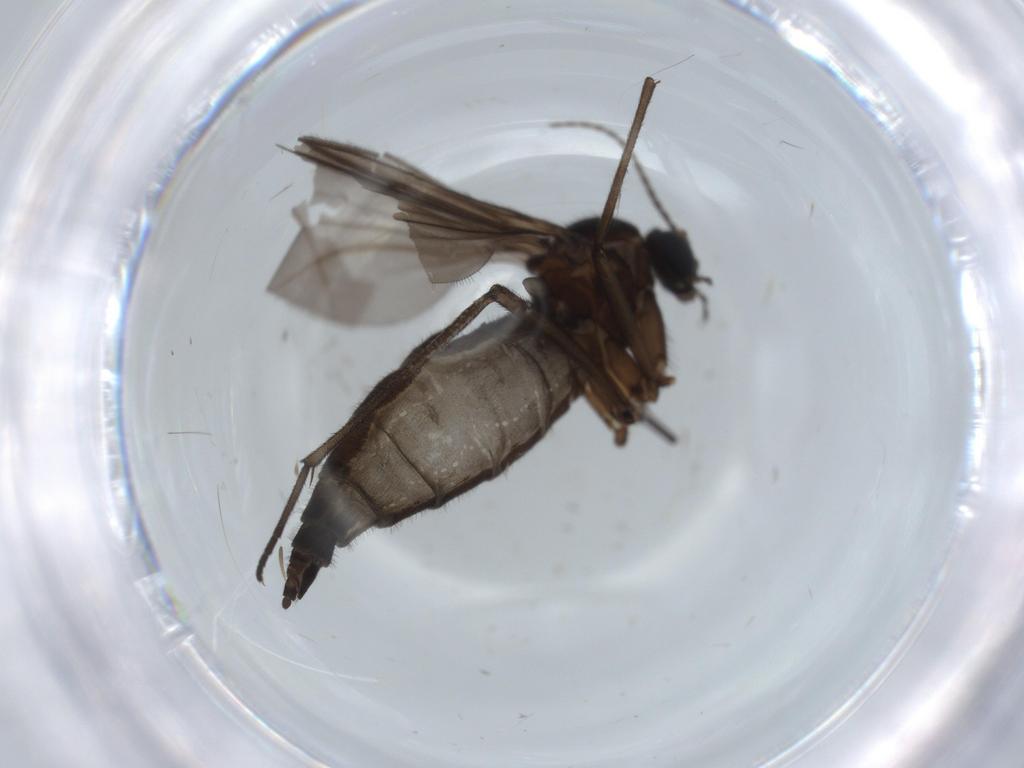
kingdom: Animalia
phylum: Arthropoda
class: Insecta
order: Diptera
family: Sciaridae
